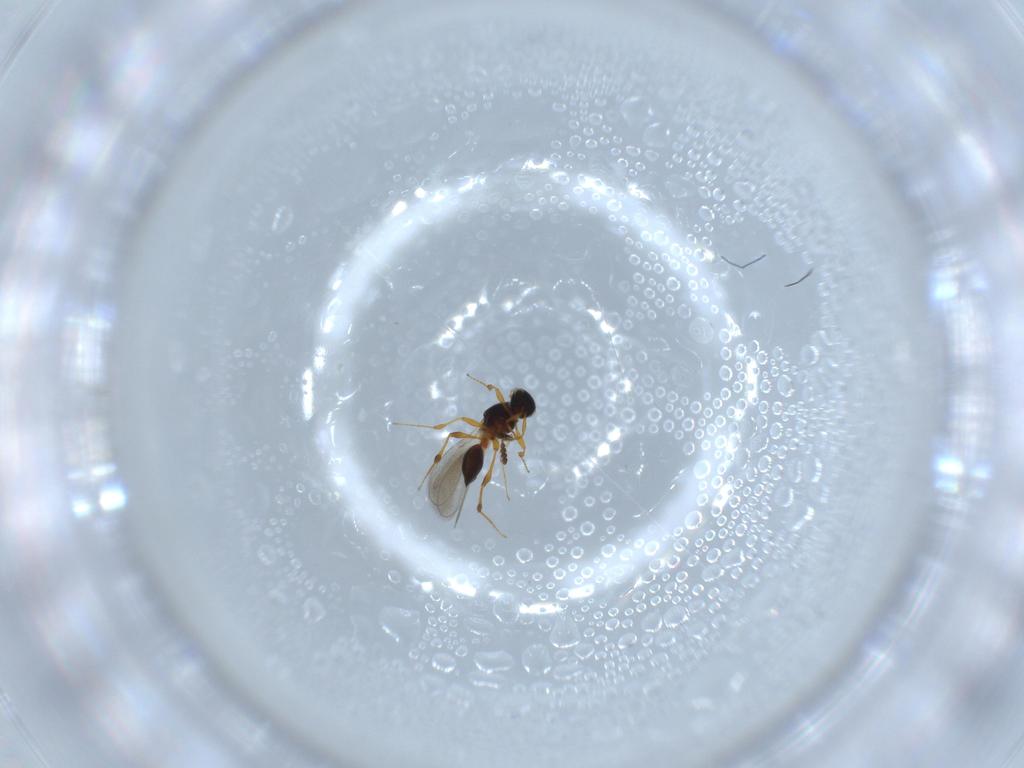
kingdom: Animalia
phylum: Arthropoda
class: Insecta
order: Hymenoptera
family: Platygastridae
